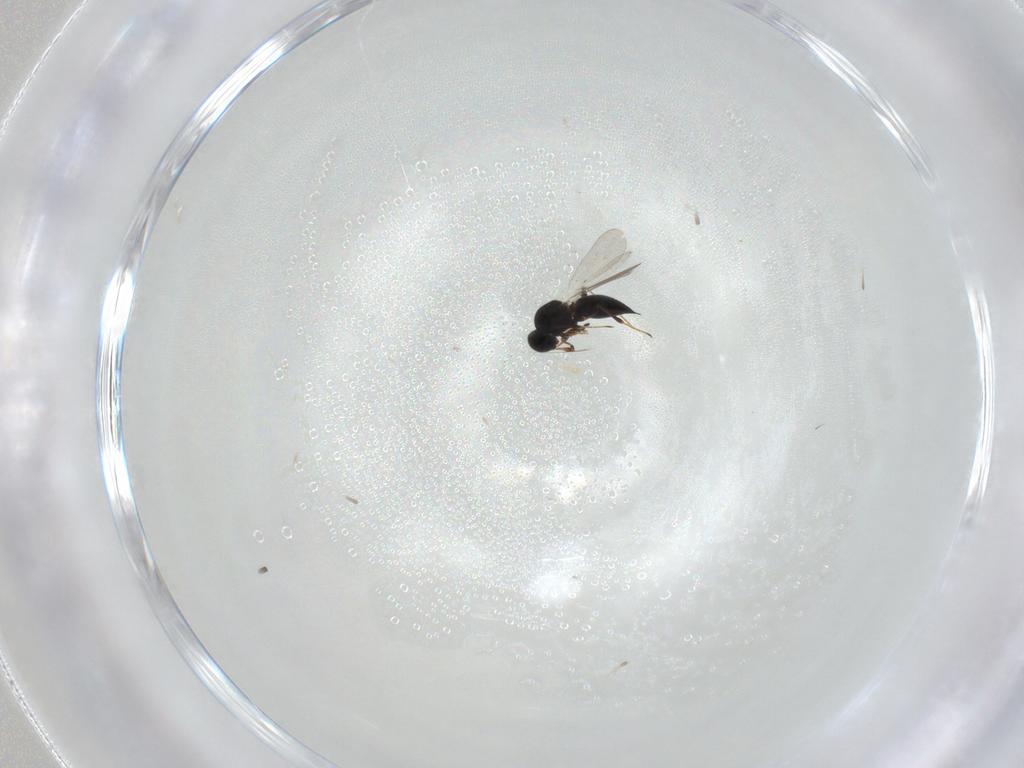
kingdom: Animalia
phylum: Arthropoda
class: Insecta
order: Hymenoptera
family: Platygastridae
